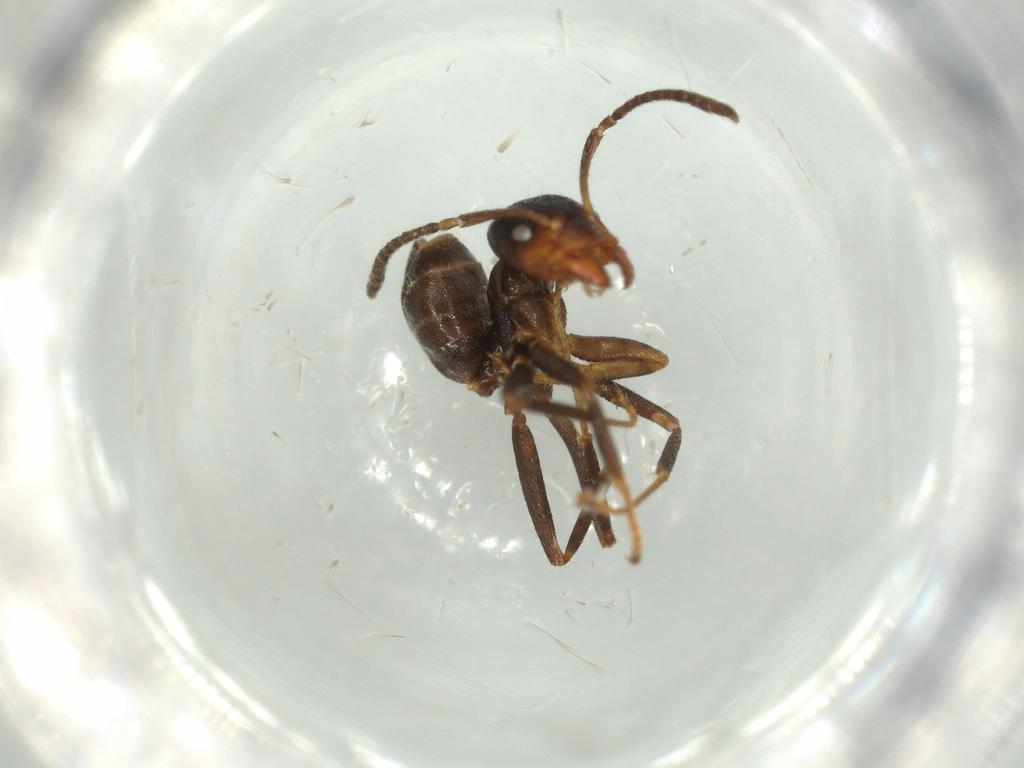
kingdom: Animalia
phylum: Arthropoda
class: Insecta
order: Hymenoptera
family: Formicidae
